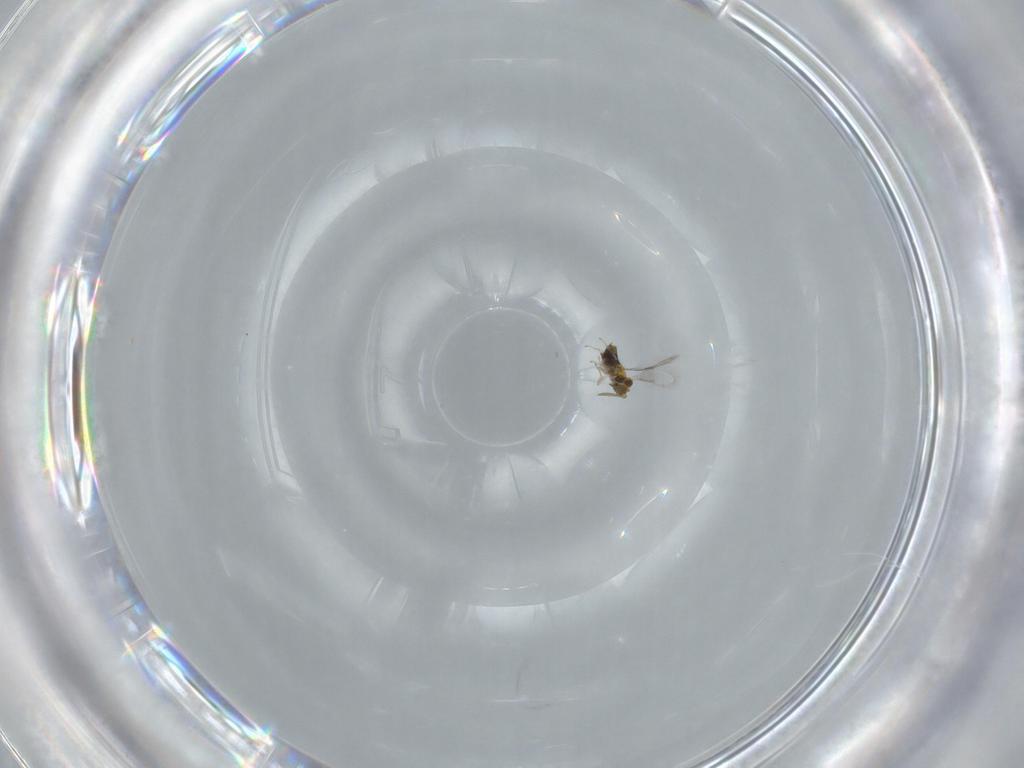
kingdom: Animalia
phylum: Arthropoda
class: Insecta
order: Hymenoptera
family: Aphelinidae
